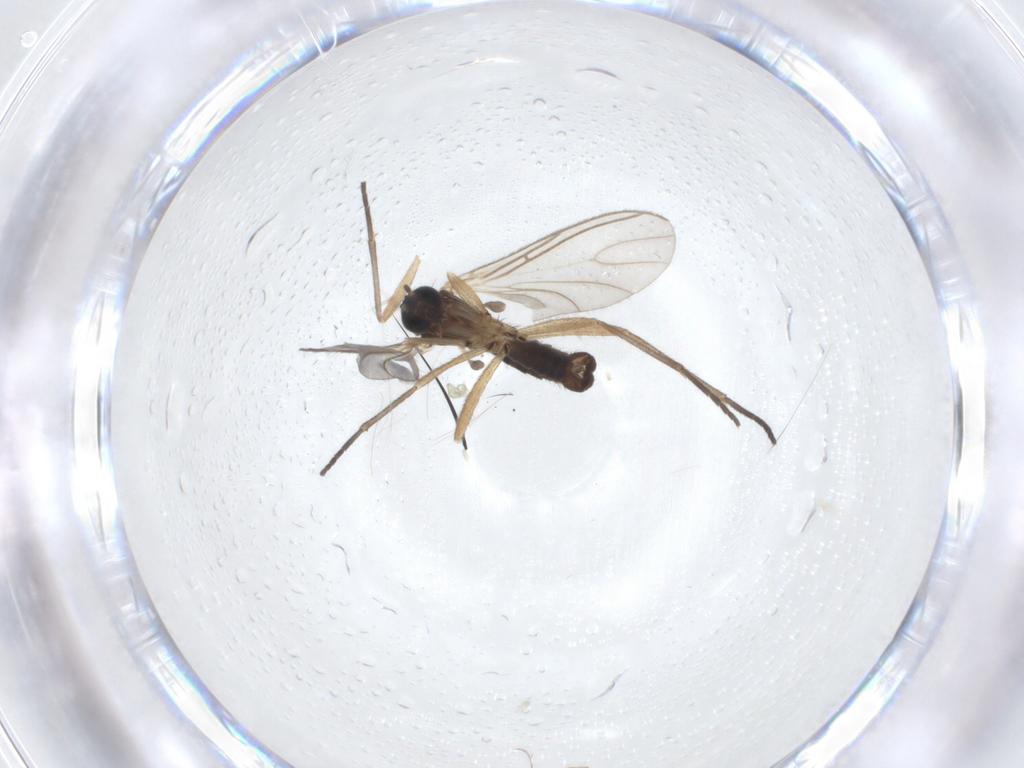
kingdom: Animalia
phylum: Arthropoda
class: Insecta
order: Diptera
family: Sciaridae
